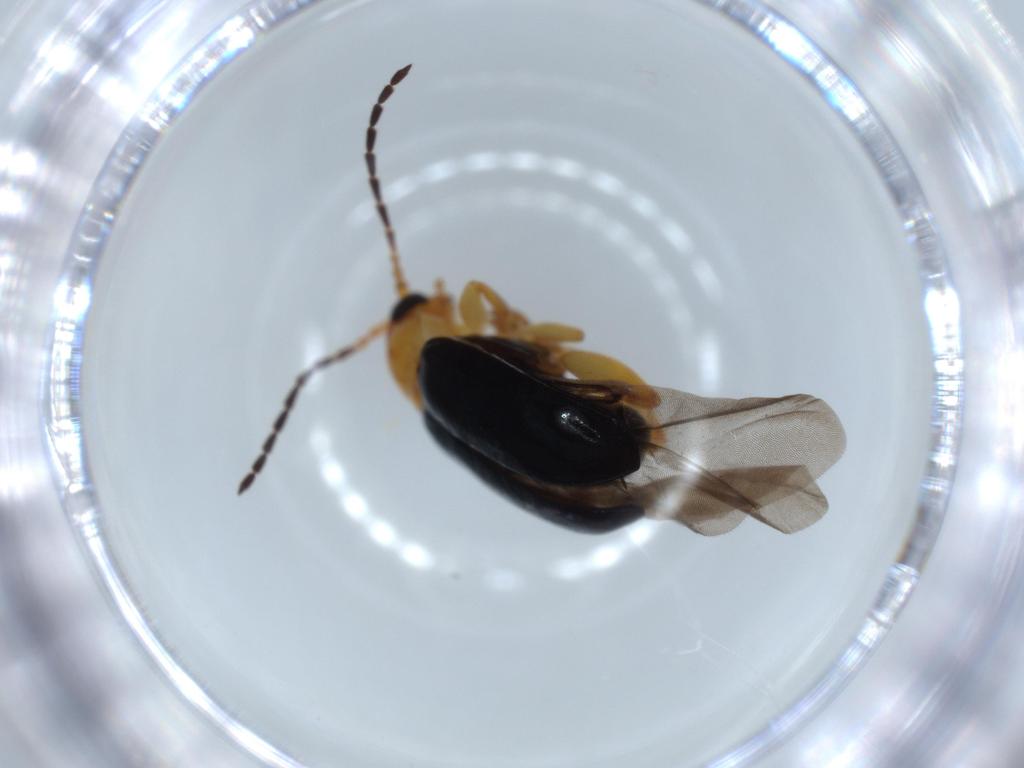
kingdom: Animalia
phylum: Arthropoda
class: Insecta
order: Coleoptera
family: Chrysomelidae
